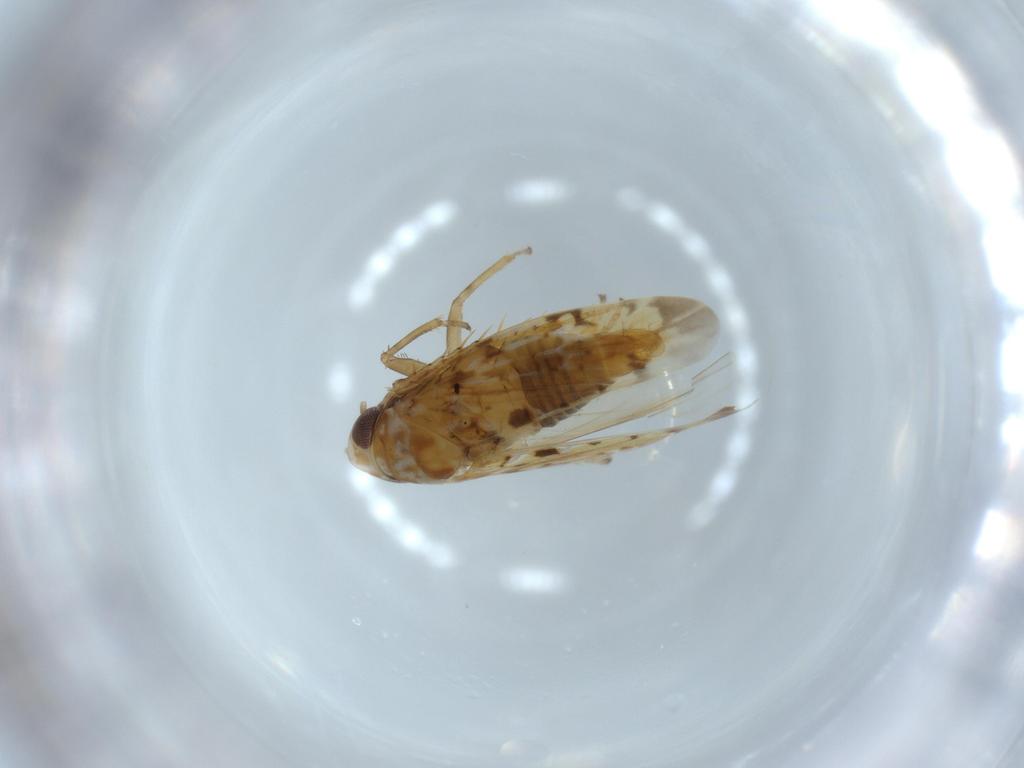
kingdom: Animalia
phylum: Arthropoda
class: Insecta
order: Hemiptera
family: Cicadellidae
